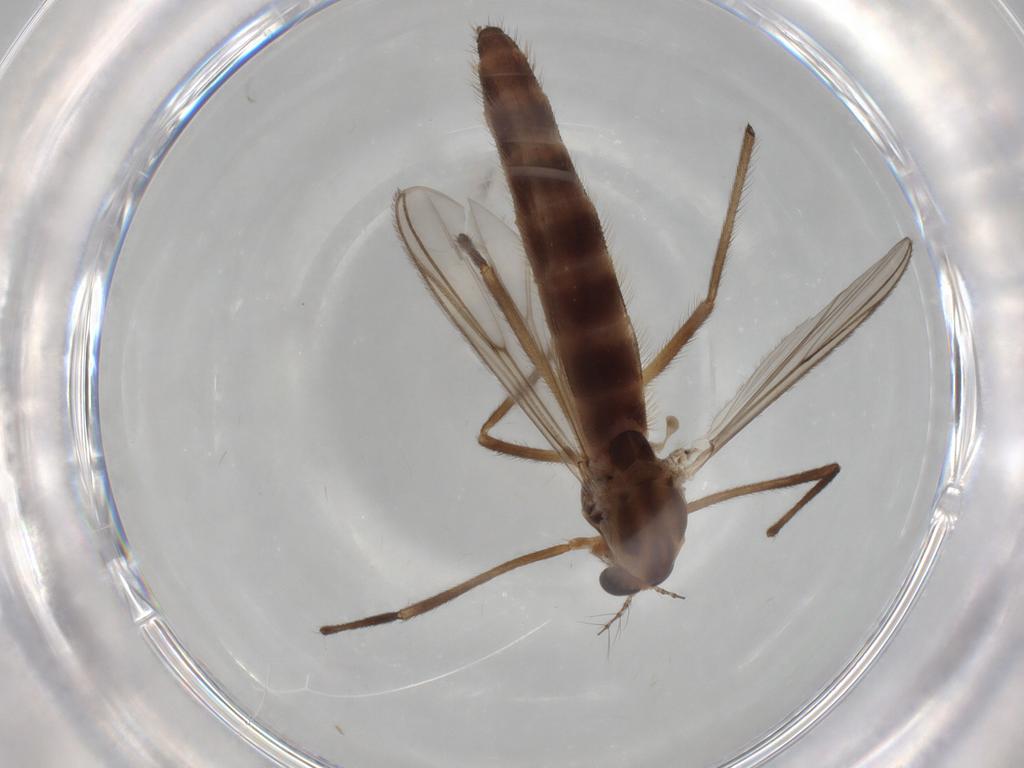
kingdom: Animalia
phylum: Arthropoda
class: Insecta
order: Diptera
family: Chironomidae
